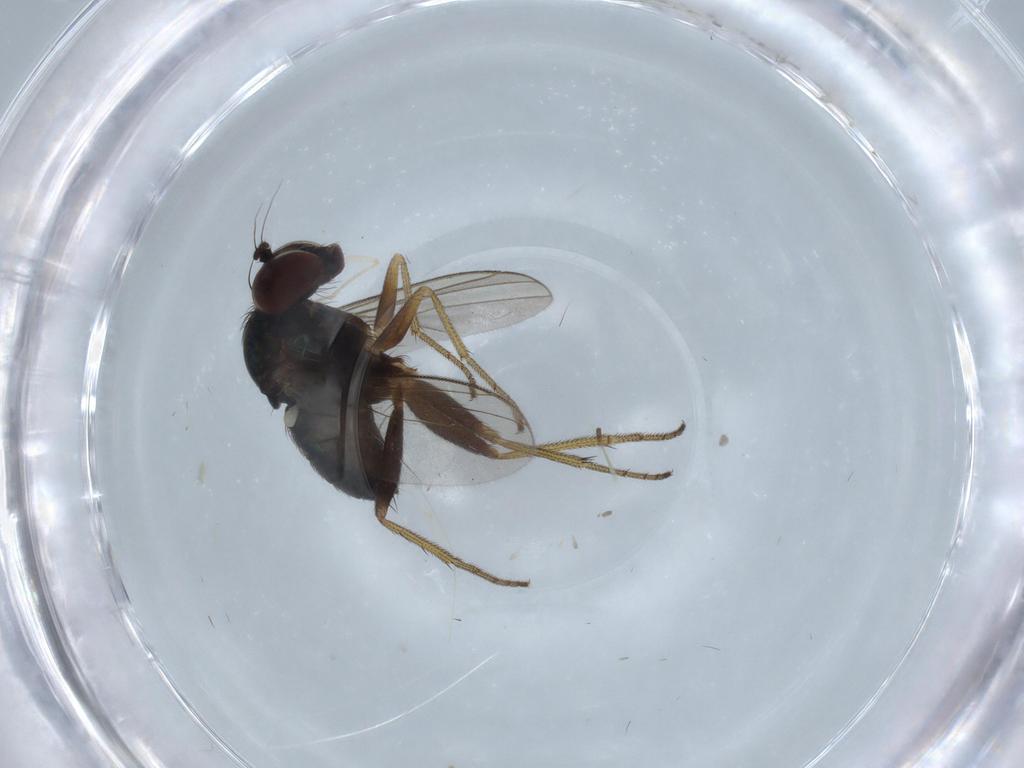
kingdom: Animalia
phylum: Arthropoda
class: Insecta
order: Diptera
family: Dolichopodidae
